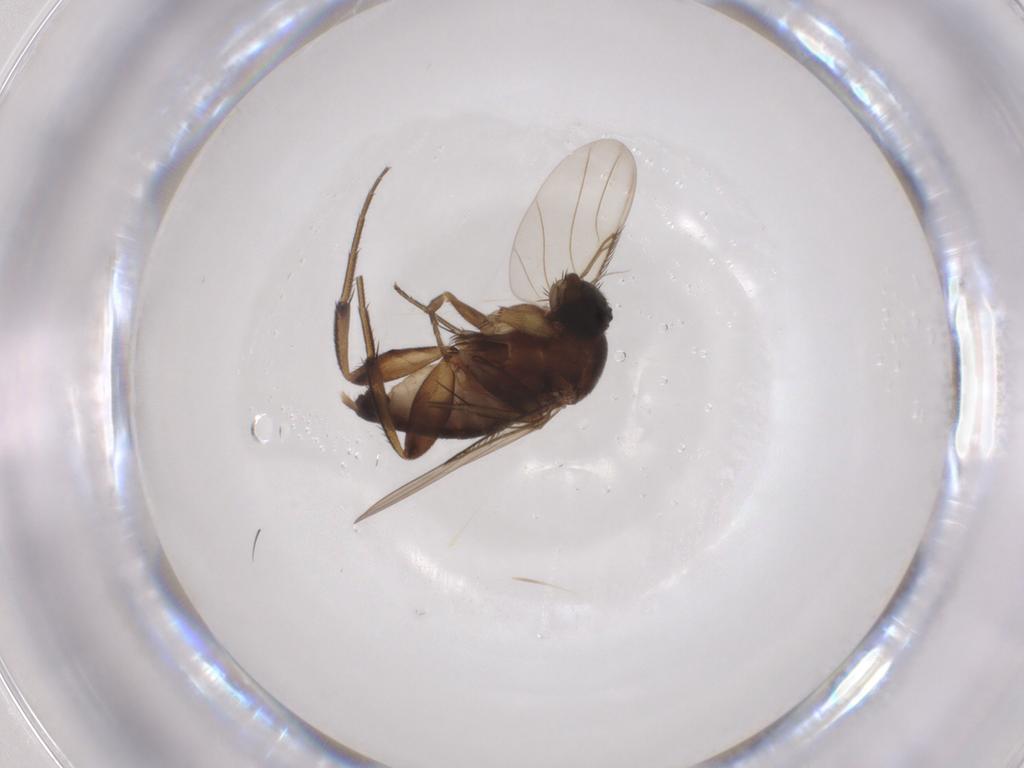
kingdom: Animalia
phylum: Arthropoda
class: Insecta
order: Diptera
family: Phoridae
